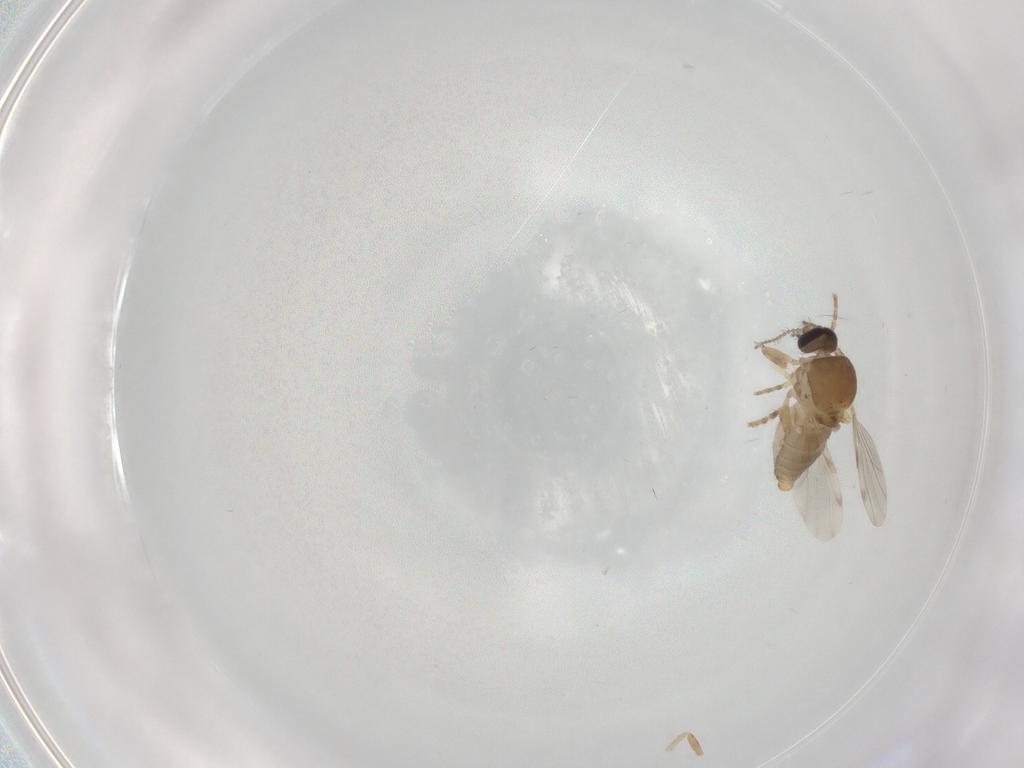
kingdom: Animalia
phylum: Arthropoda
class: Insecta
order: Diptera
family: Ceratopogonidae
